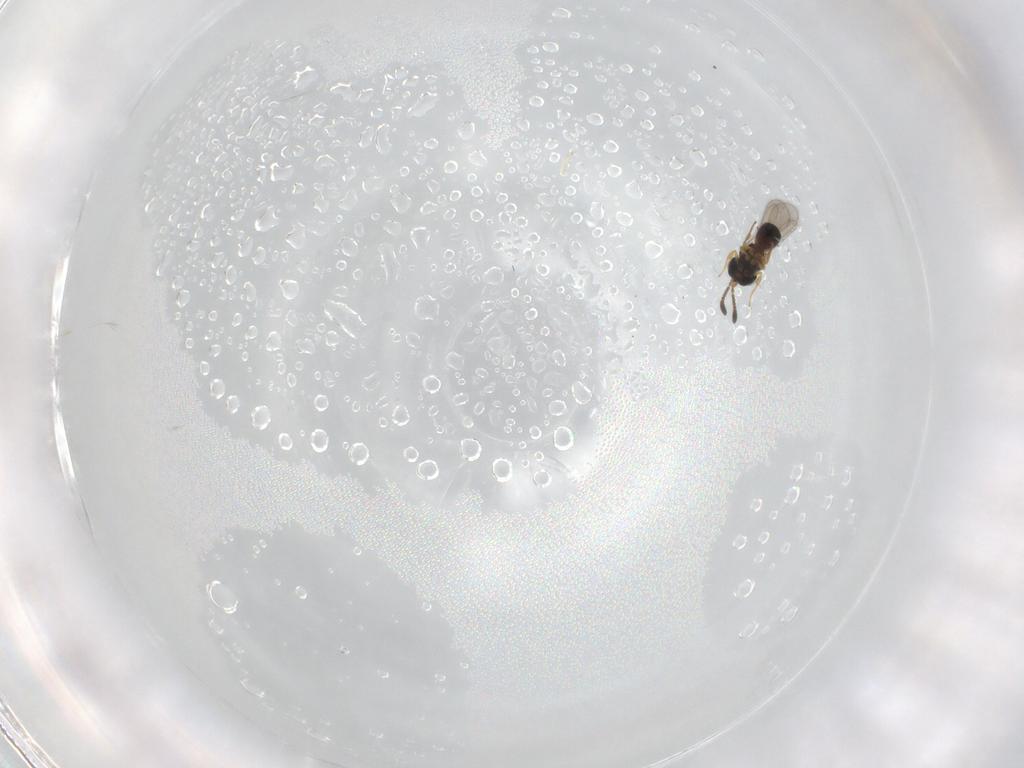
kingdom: Animalia
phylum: Arthropoda
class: Insecta
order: Hymenoptera
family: Scelionidae
